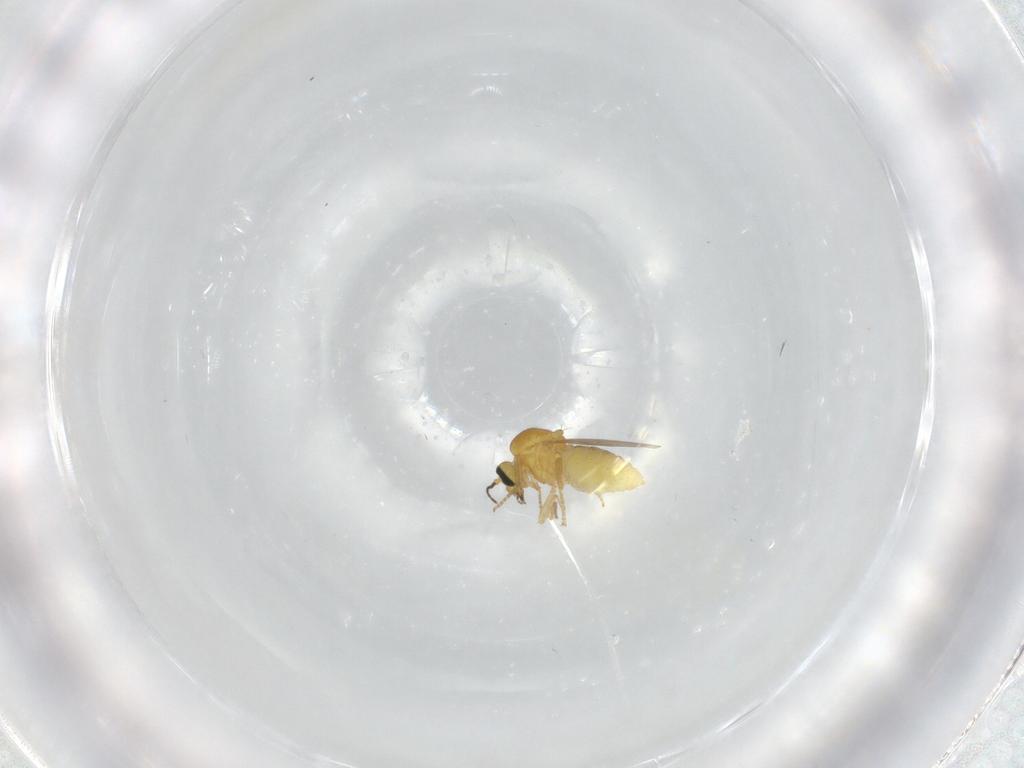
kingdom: Animalia
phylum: Arthropoda
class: Insecta
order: Diptera
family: Ceratopogonidae
